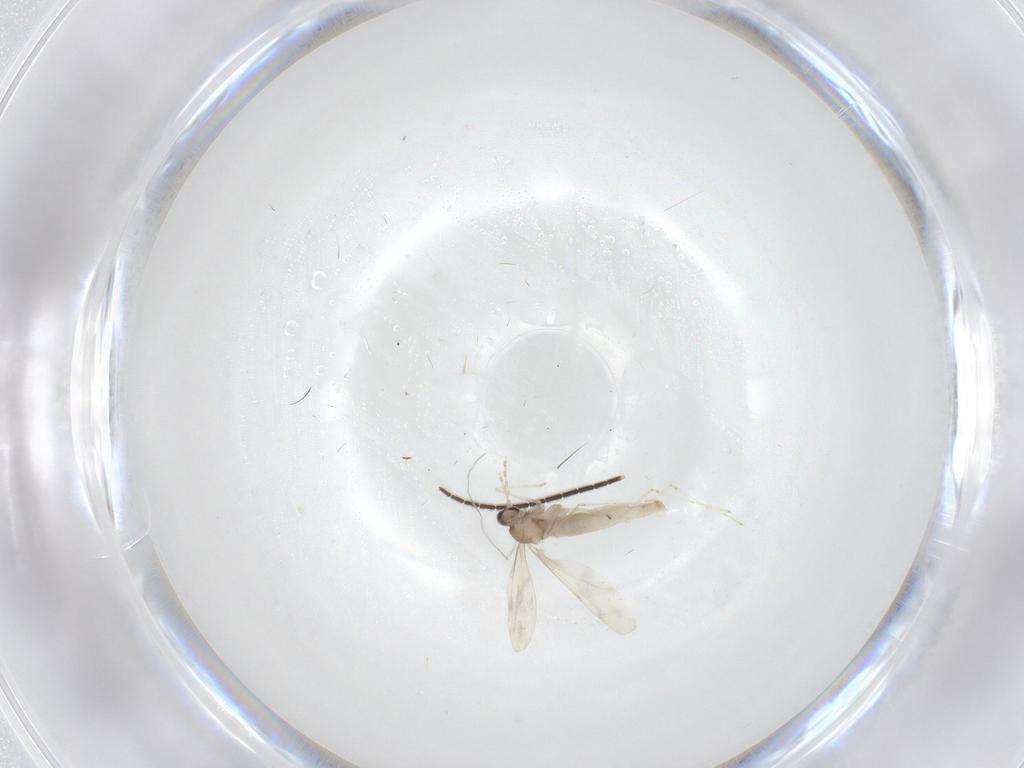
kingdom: Animalia
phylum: Arthropoda
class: Insecta
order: Diptera
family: Cecidomyiidae
